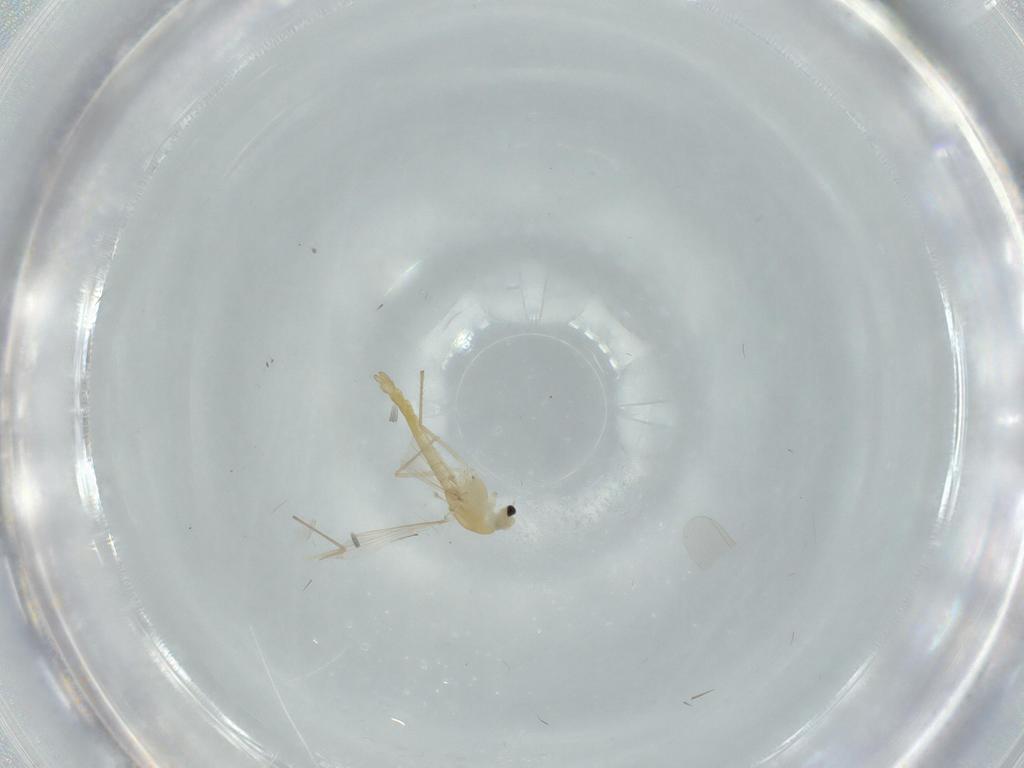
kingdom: Animalia
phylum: Arthropoda
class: Insecta
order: Diptera
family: Chironomidae
